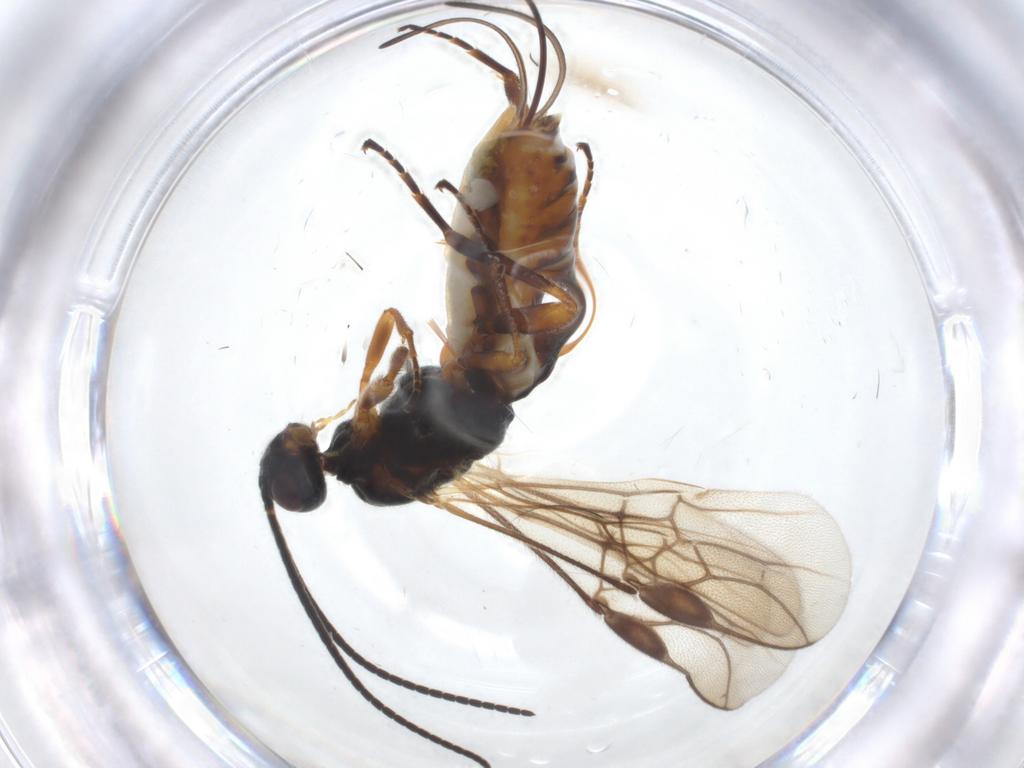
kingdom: Animalia
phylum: Arthropoda
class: Insecta
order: Hymenoptera
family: Braconidae
